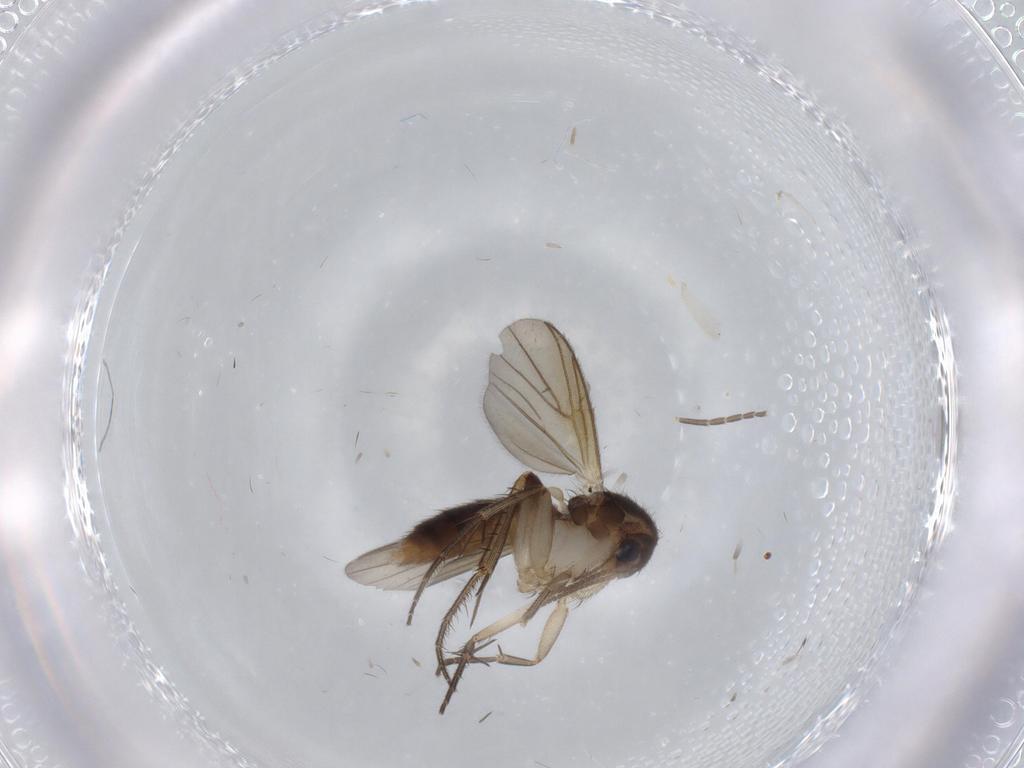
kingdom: Animalia
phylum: Arthropoda
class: Insecta
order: Diptera
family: Mycetophilidae
